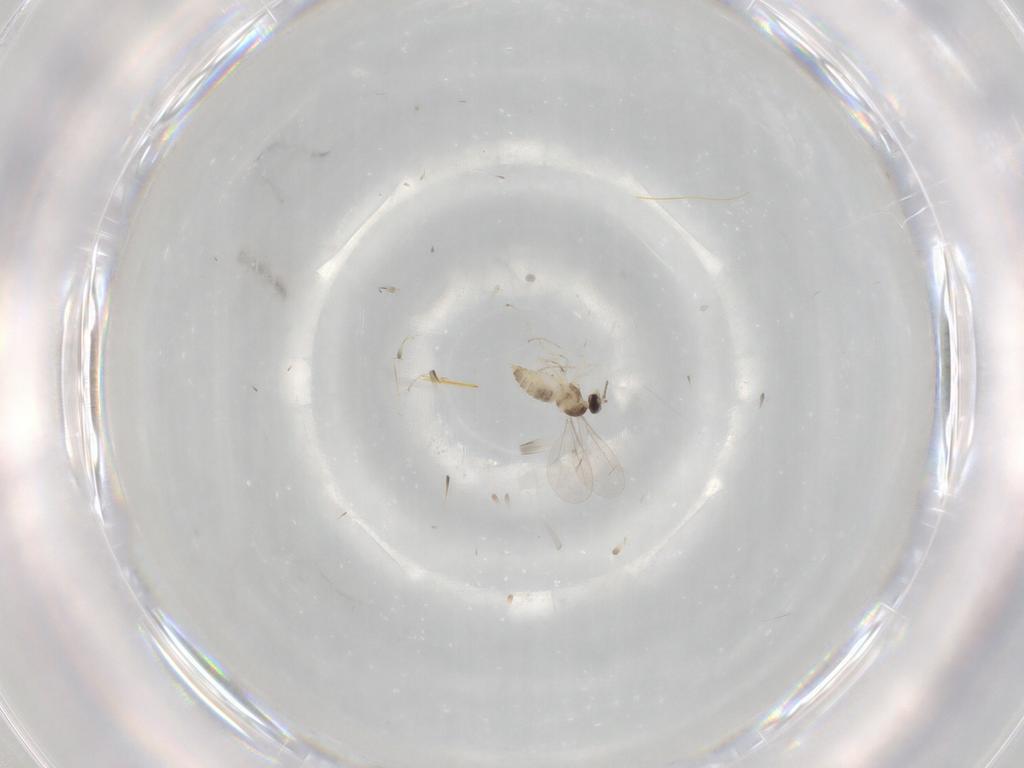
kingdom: Animalia
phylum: Arthropoda
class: Insecta
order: Diptera
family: Cecidomyiidae
